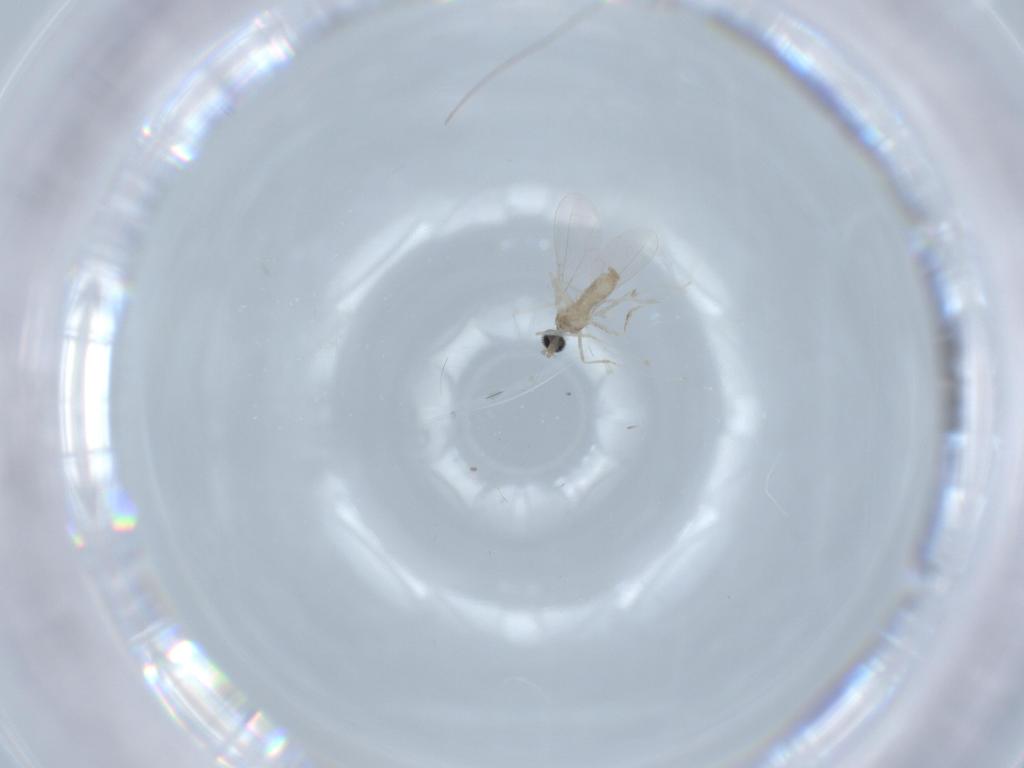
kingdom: Animalia
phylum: Arthropoda
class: Insecta
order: Diptera
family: Cecidomyiidae
